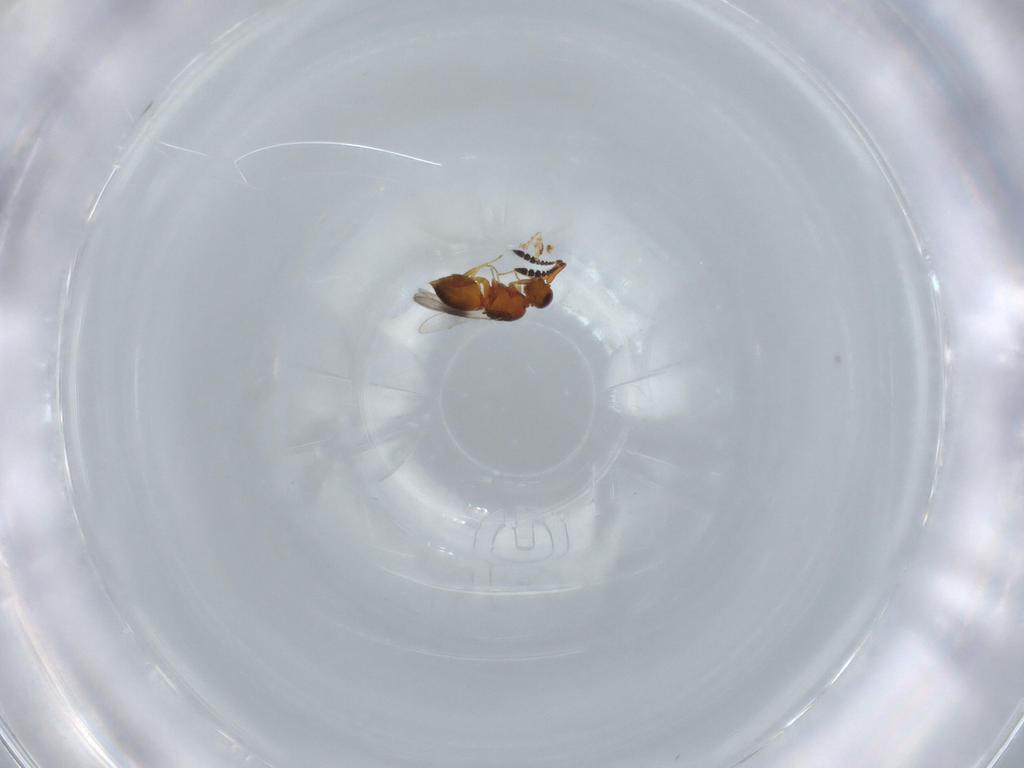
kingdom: Animalia
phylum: Arthropoda
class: Insecta
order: Hymenoptera
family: Ceraphronidae
